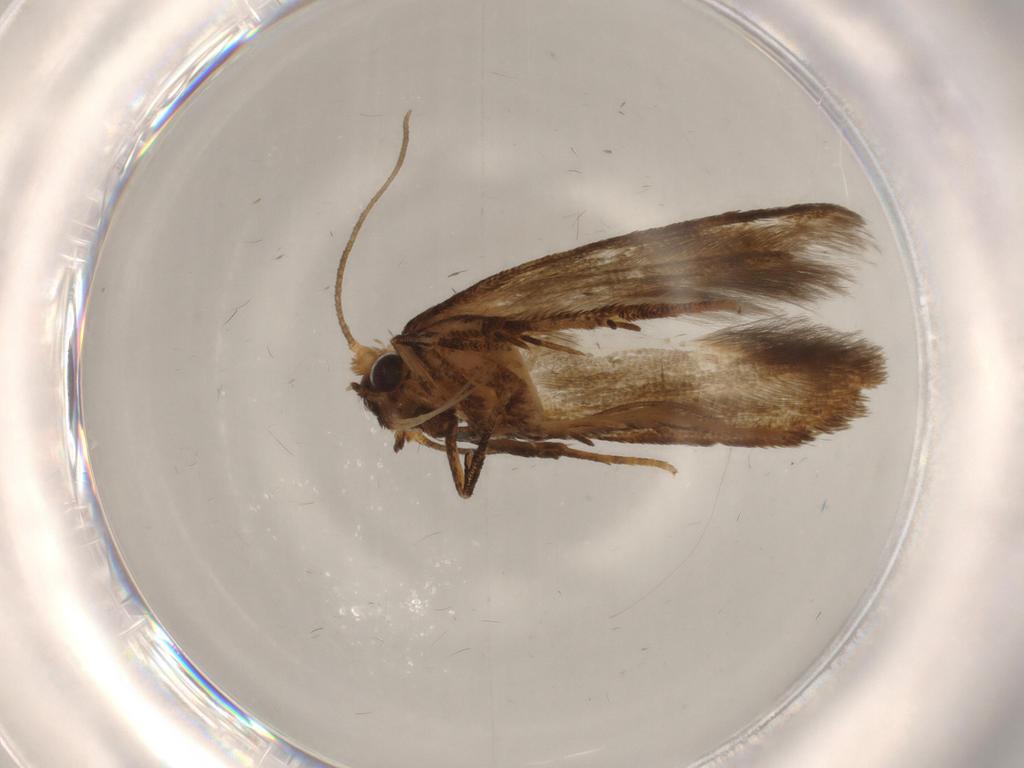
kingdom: Animalia
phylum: Arthropoda
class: Insecta
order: Lepidoptera
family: Blastobasidae
